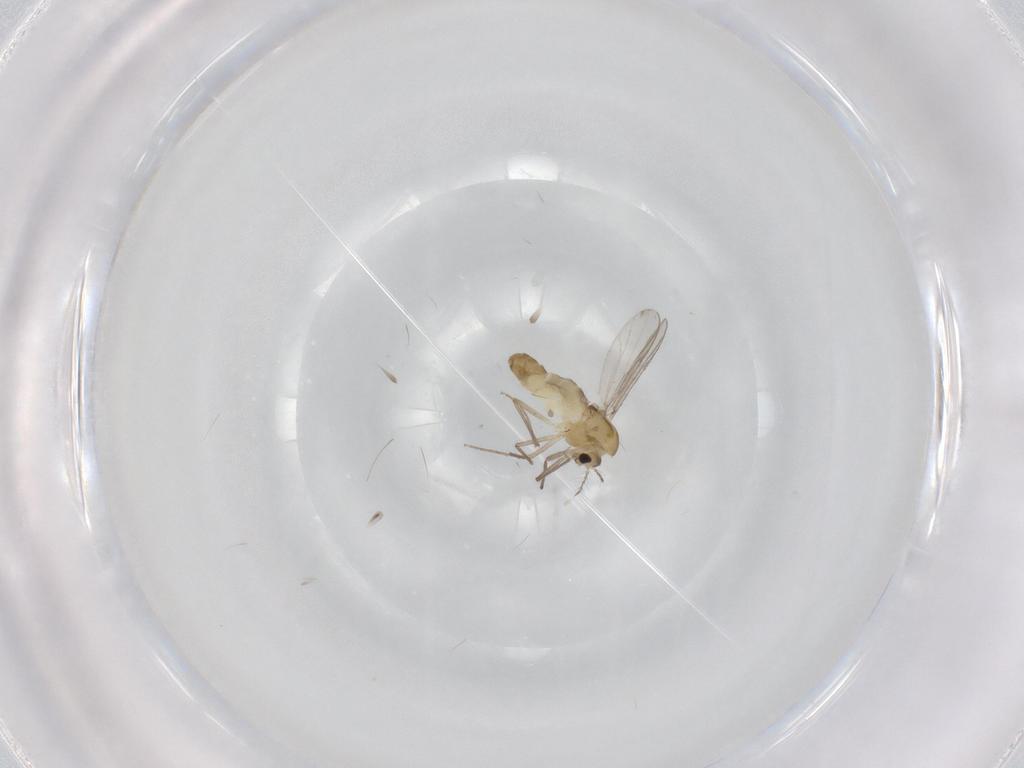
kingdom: Animalia
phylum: Arthropoda
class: Insecta
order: Diptera
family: Chironomidae
